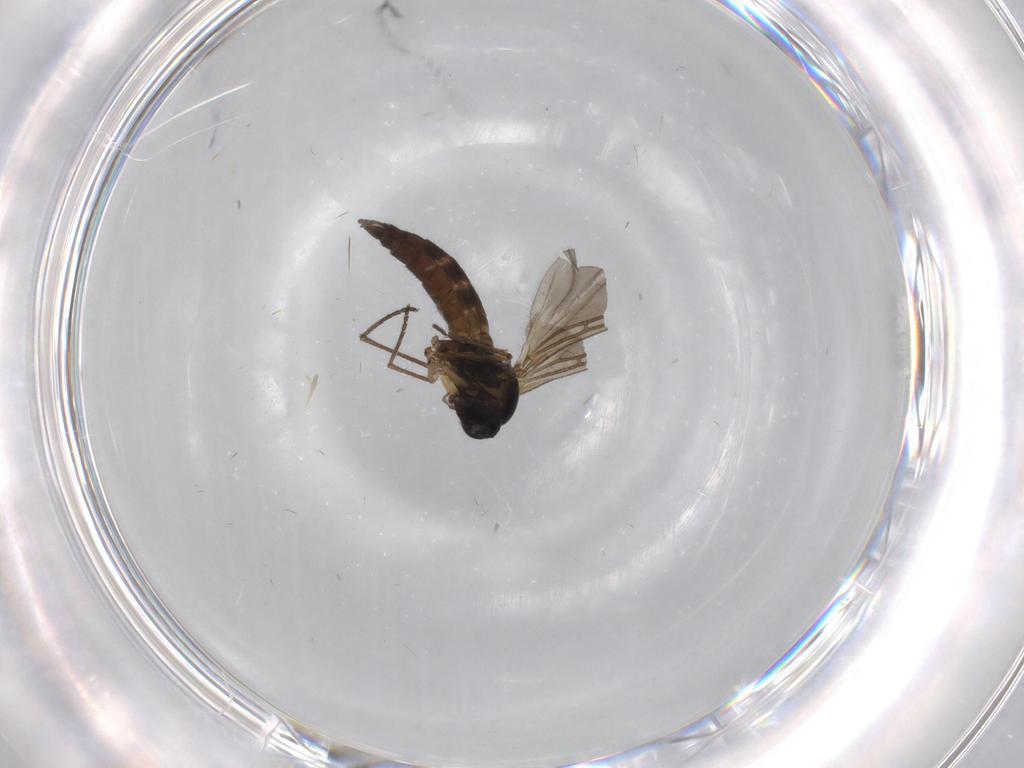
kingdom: Animalia
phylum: Arthropoda
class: Insecta
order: Diptera
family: Sciaridae
